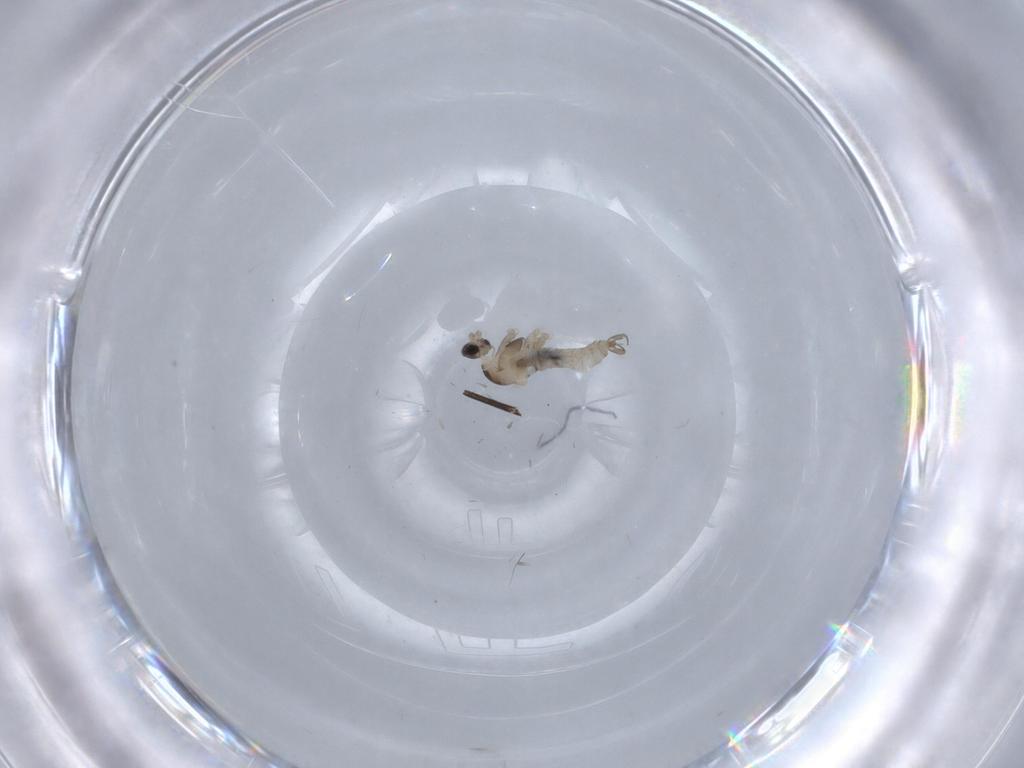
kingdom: Animalia
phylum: Arthropoda
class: Insecta
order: Diptera
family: Cecidomyiidae
